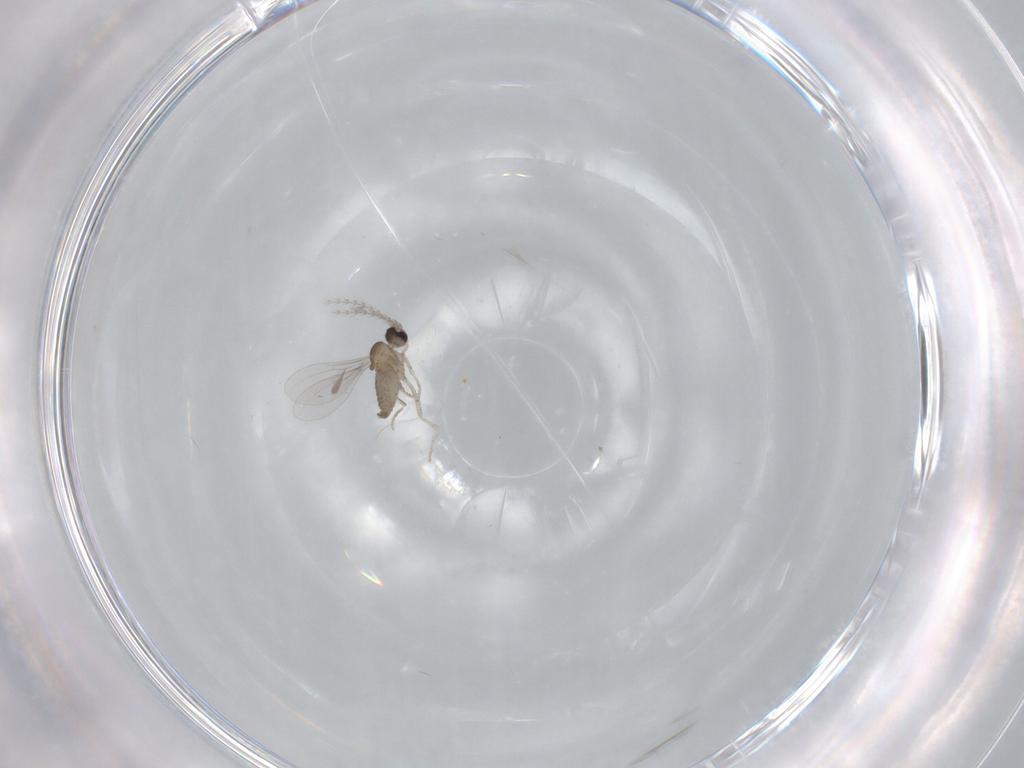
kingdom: Animalia
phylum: Arthropoda
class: Insecta
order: Diptera
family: Cecidomyiidae
